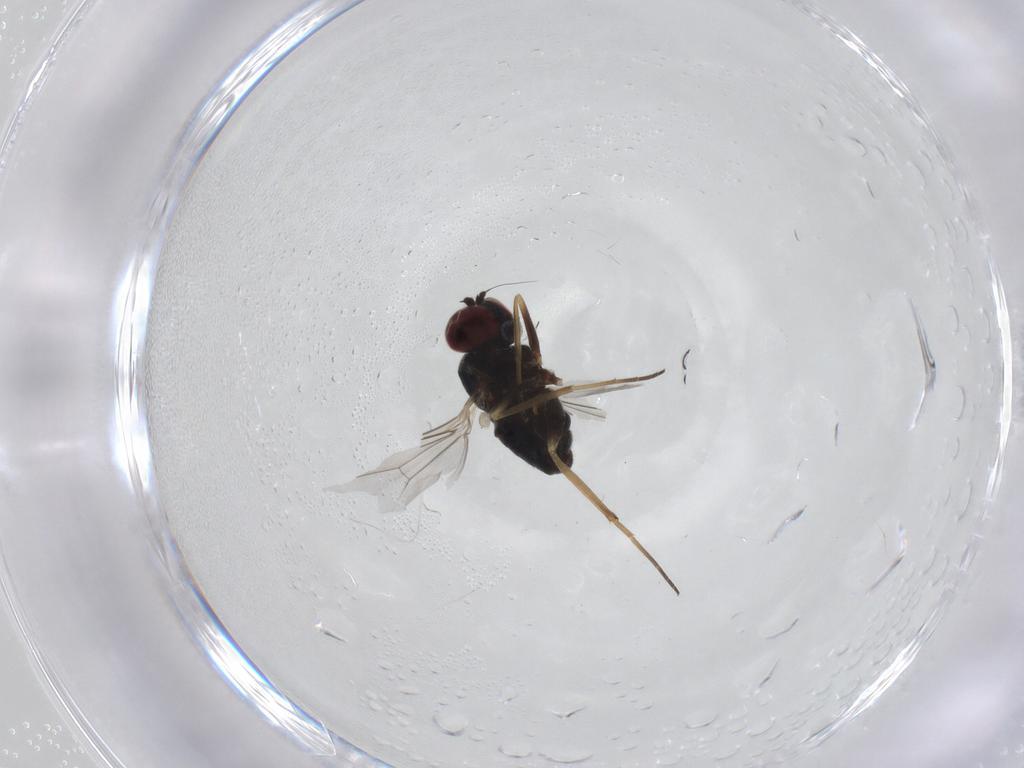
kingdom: Animalia
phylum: Arthropoda
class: Insecta
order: Diptera
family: Dolichopodidae
